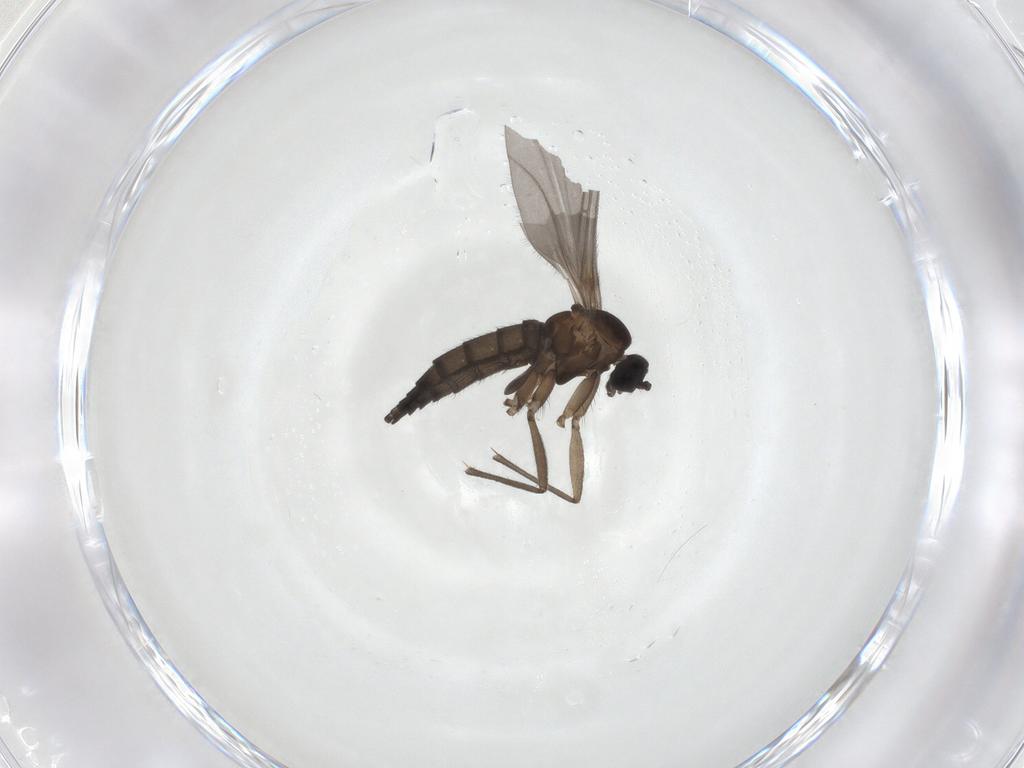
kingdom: Animalia
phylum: Arthropoda
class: Insecta
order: Diptera
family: Sciaridae
